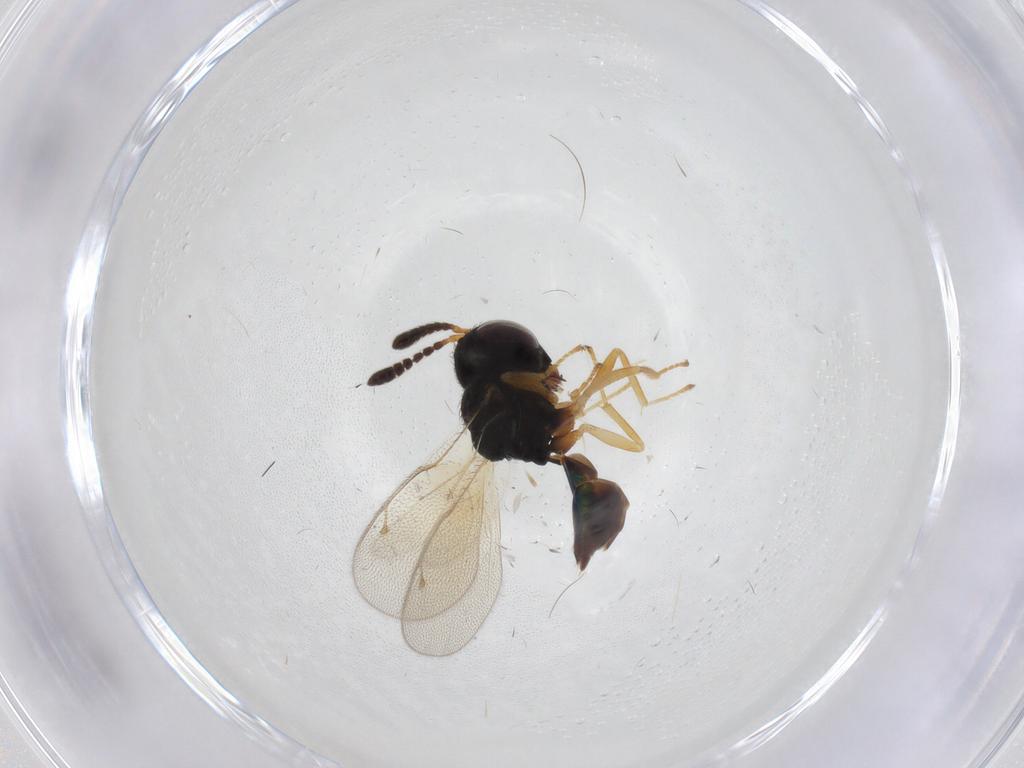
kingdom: Animalia
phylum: Arthropoda
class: Insecta
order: Hymenoptera
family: Pteromalidae
